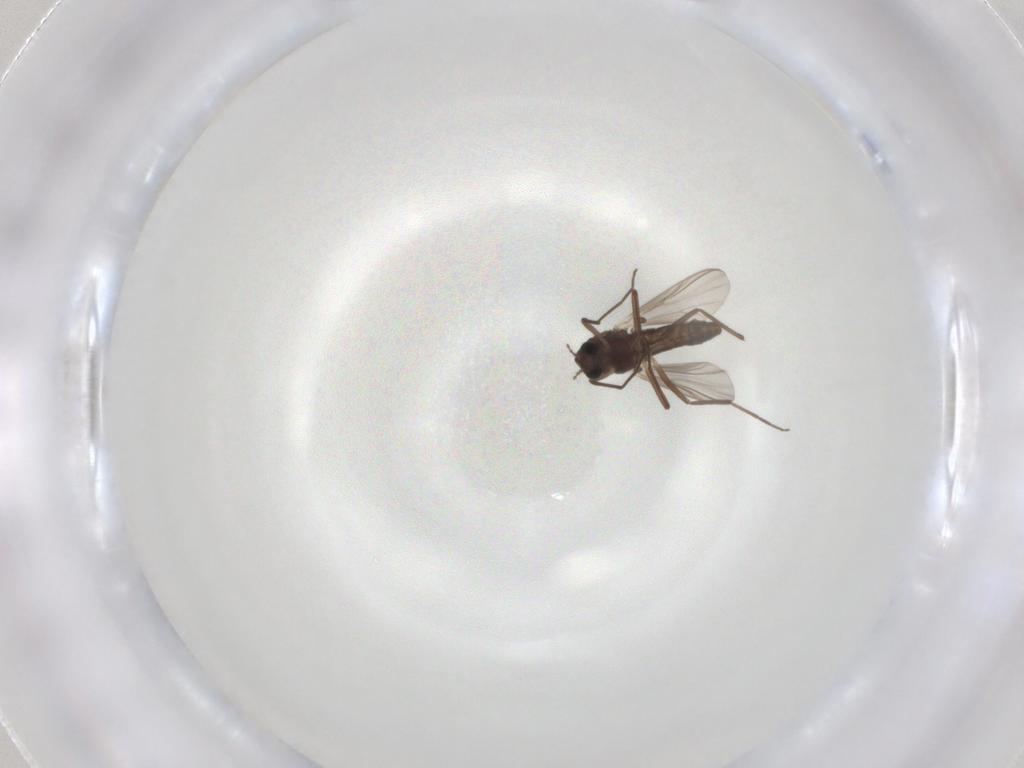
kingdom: Animalia
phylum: Arthropoda
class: Insecta
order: Diptera
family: Chironomidae
